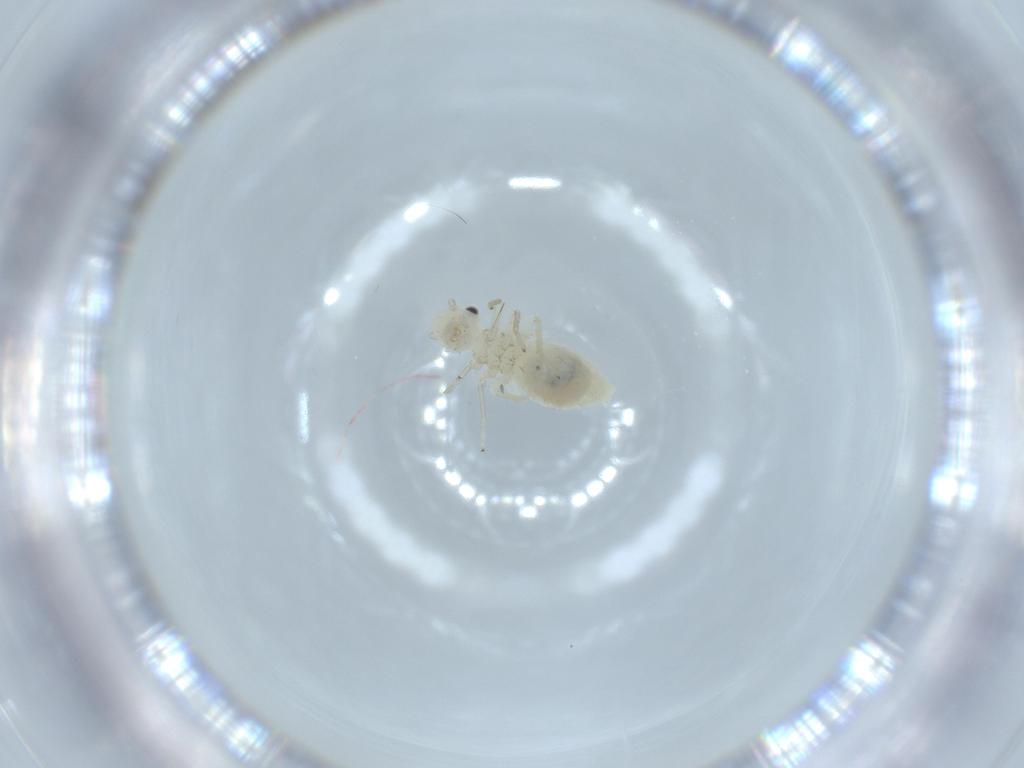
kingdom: Animalia
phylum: Arthropoda
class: Insecta
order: Psocodea
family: Caeciliusidae
